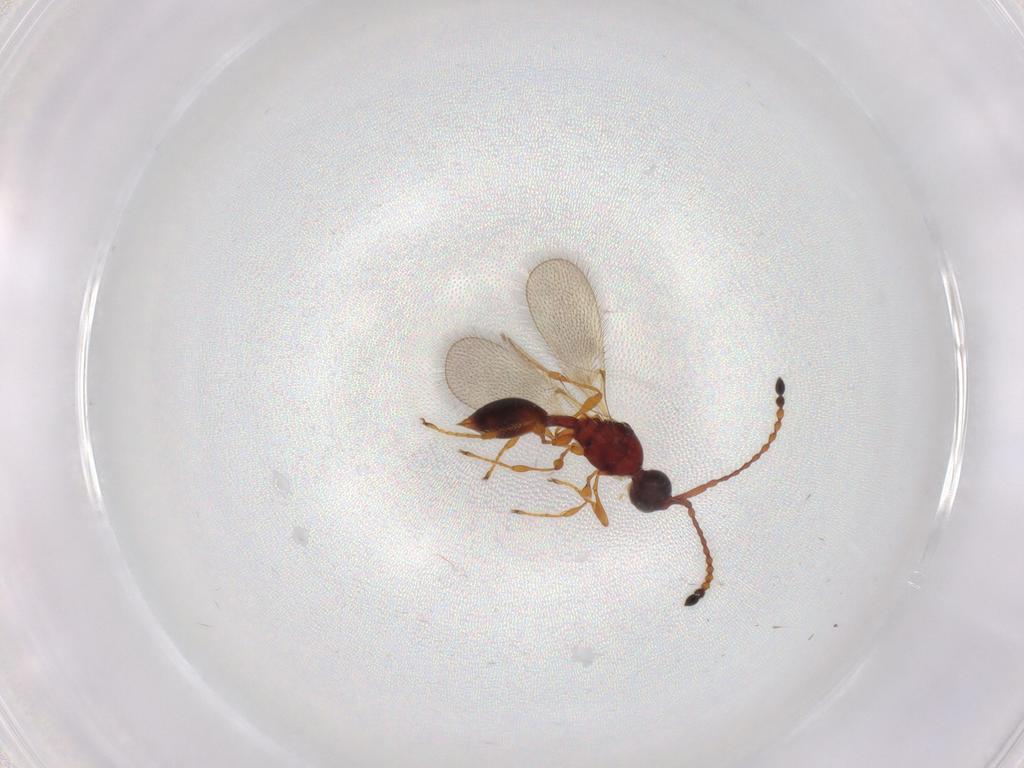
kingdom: Animalia
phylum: Arthropoda
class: Insecta
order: Hymenoptera
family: Diapriidae
